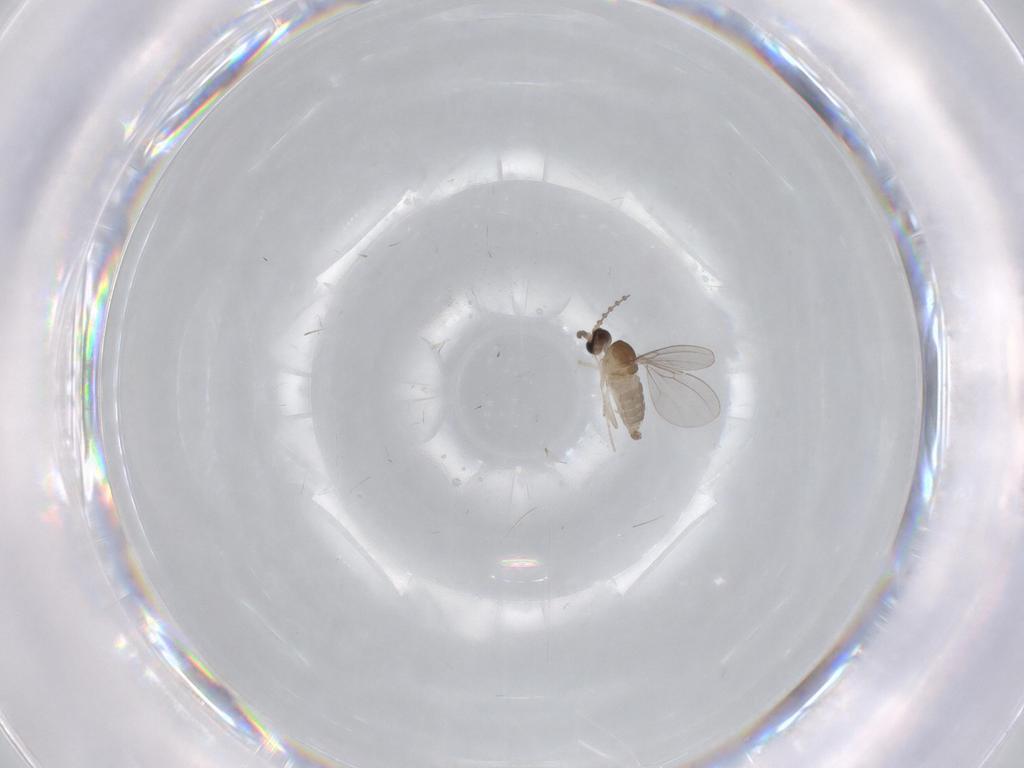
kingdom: Animalia
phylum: Arthropoda
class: Insecta
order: Diptera
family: Cecidomyiidae
